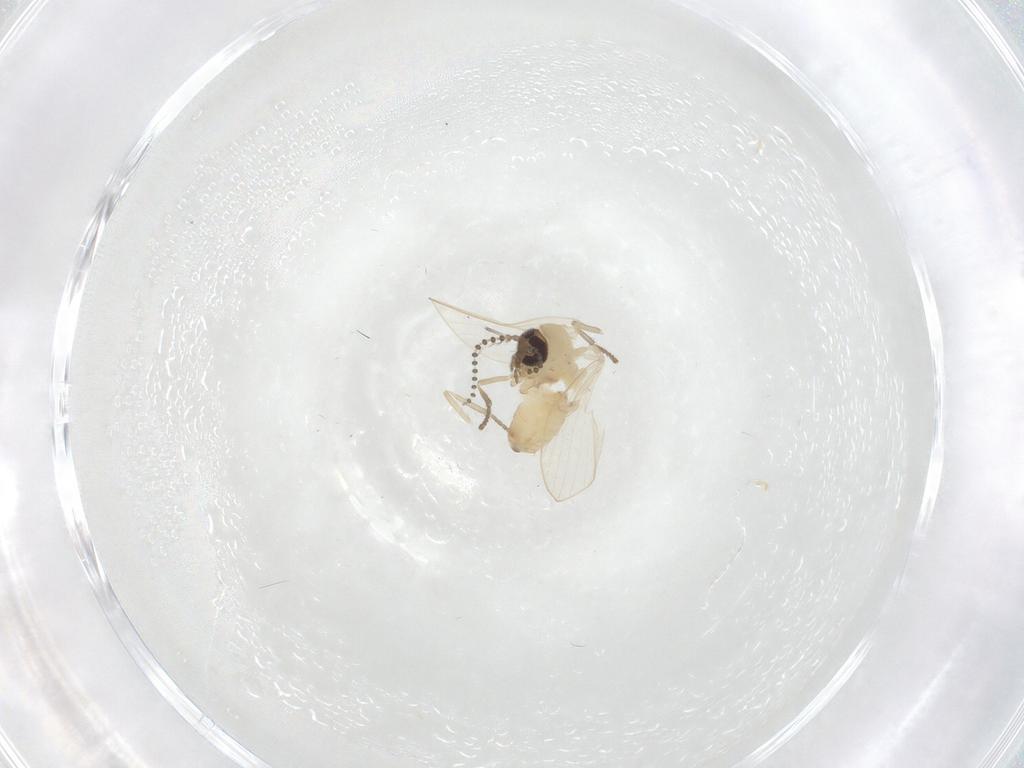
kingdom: Animalia
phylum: Arthropoda
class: Insecta
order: Diptera
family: Psychodidae
